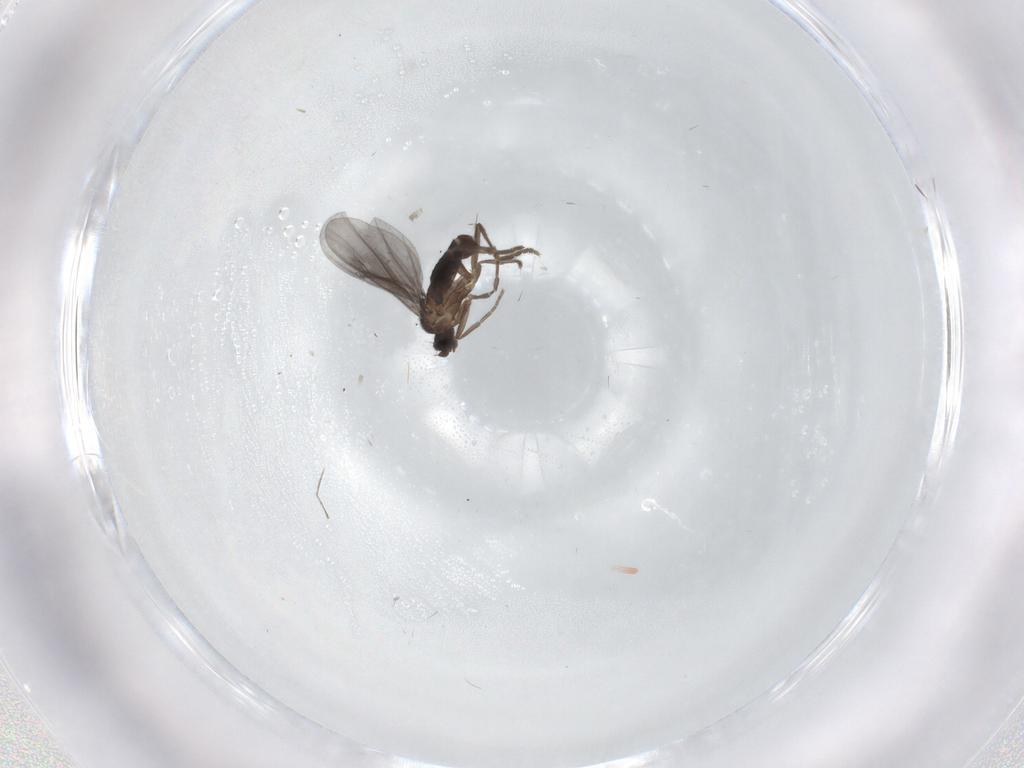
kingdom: Animalia
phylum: Arthropoda
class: Insecta
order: Diptera
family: Phoridae
